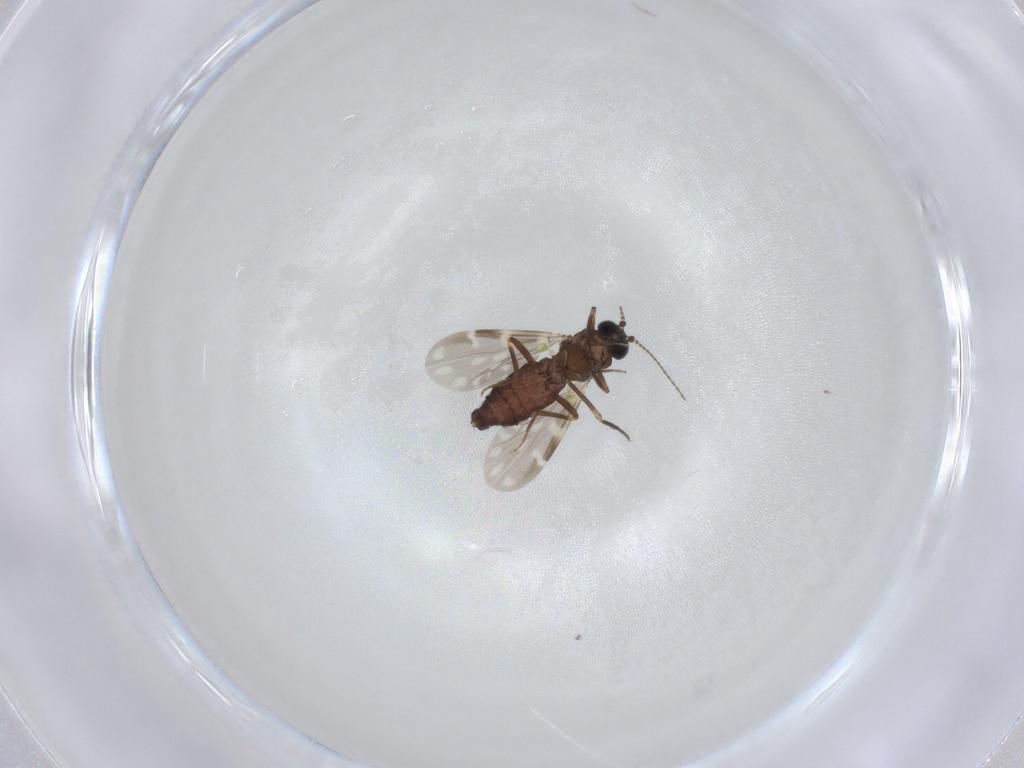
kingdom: Animalia
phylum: Arthropoda
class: Insecta
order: Diptera
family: Ceratopogonidae
